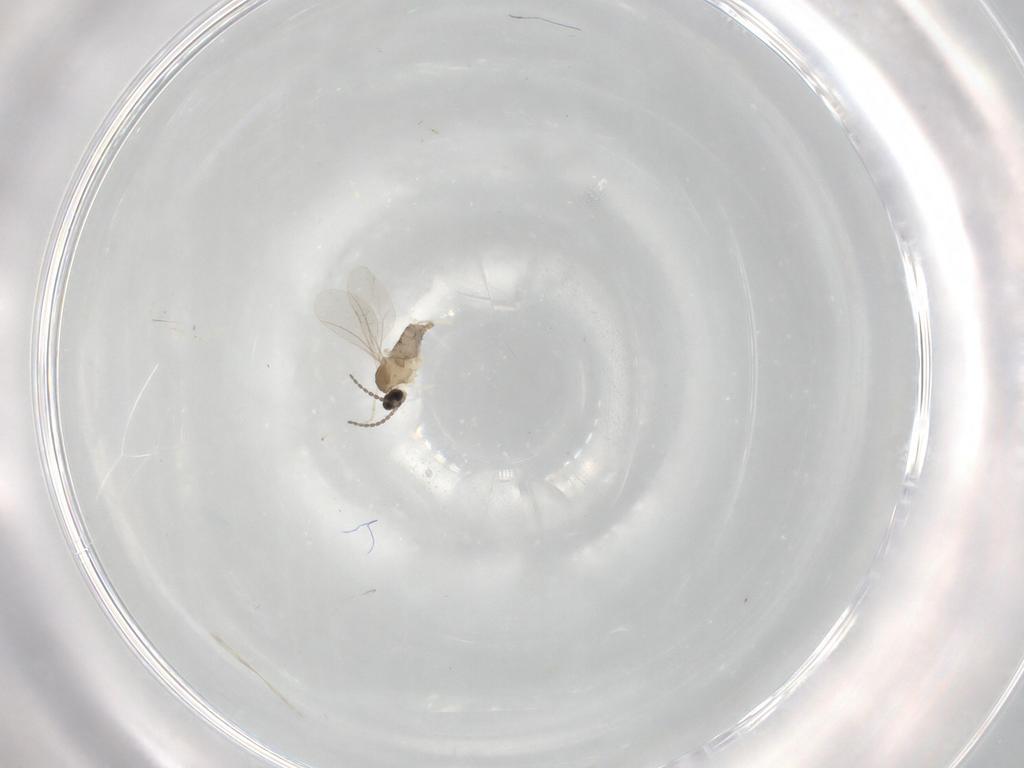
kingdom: Animalia
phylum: Arthropoda
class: Insecta
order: Diptera
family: Cecidomyiidae
